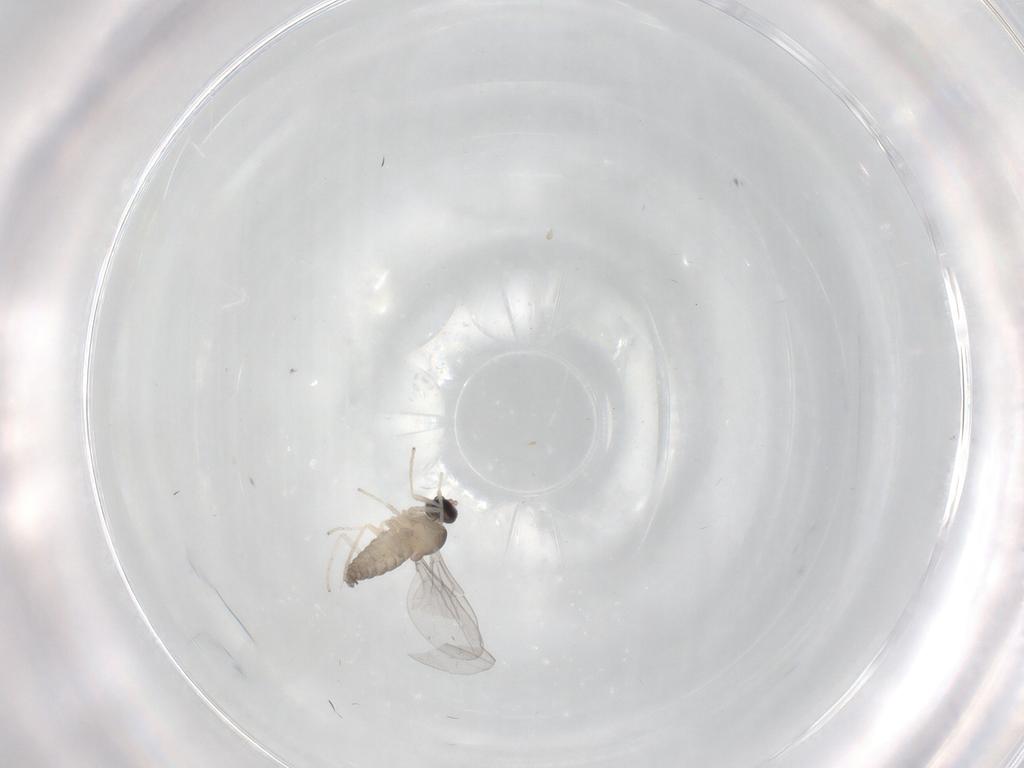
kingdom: Animalia
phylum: Arthropoda
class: Insecta
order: Diptera
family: Cecidomyiidae
